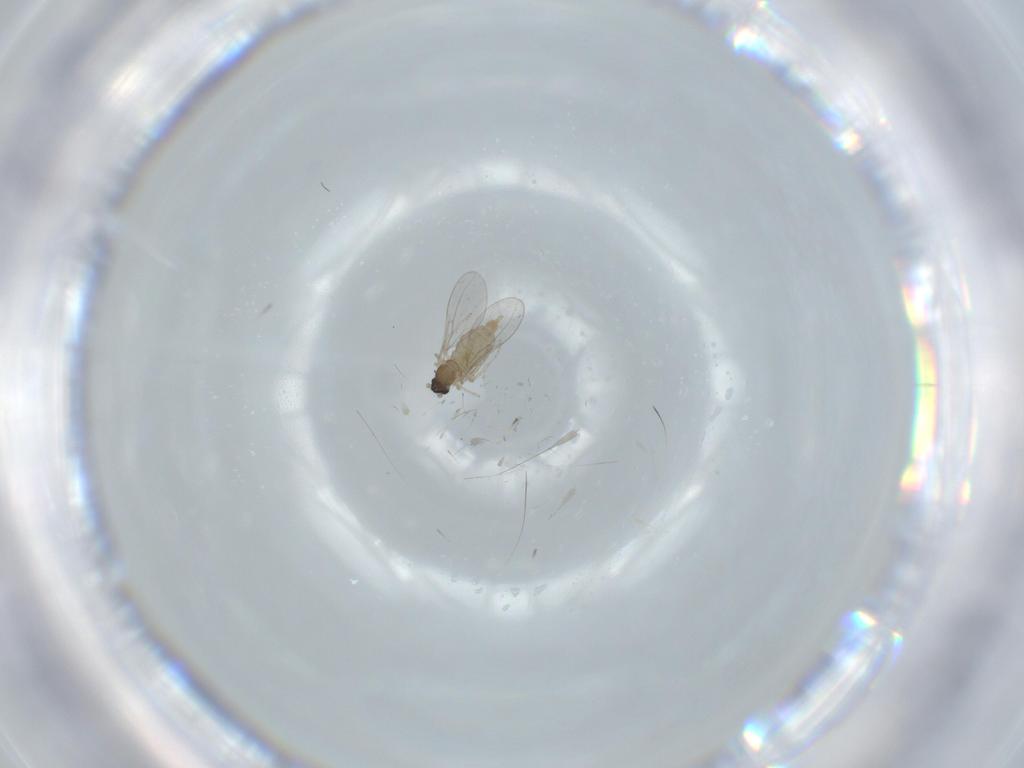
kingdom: Animalia
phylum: Arthropoda
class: Insecta
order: Diptera
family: Cecidomyiidae
